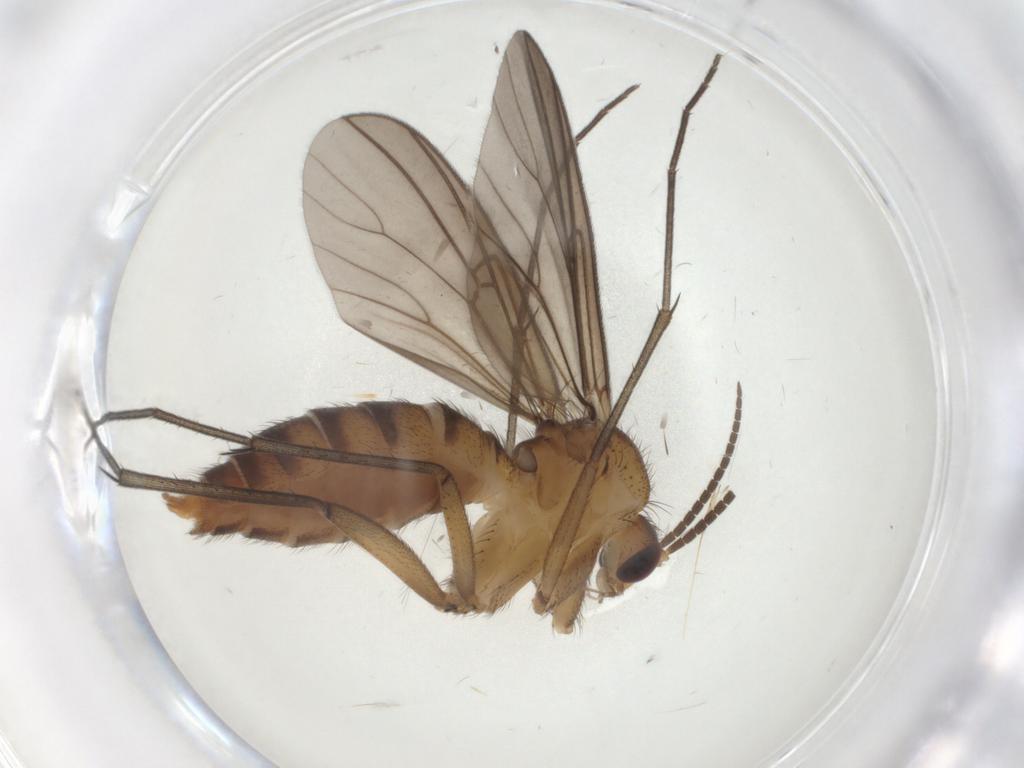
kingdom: Animalia
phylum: Arthropoda
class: Insecta
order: Diptera
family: Mycetophilidae
